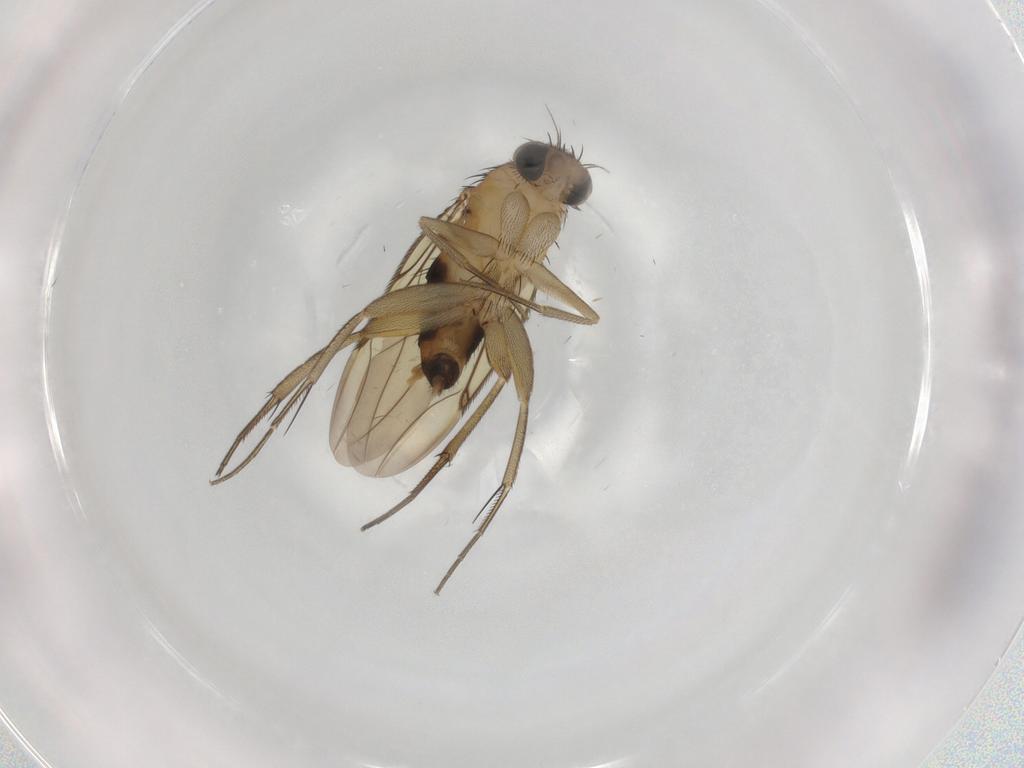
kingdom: Animalia
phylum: Arthropoda
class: Insecta
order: Diptera
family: Phoridae
